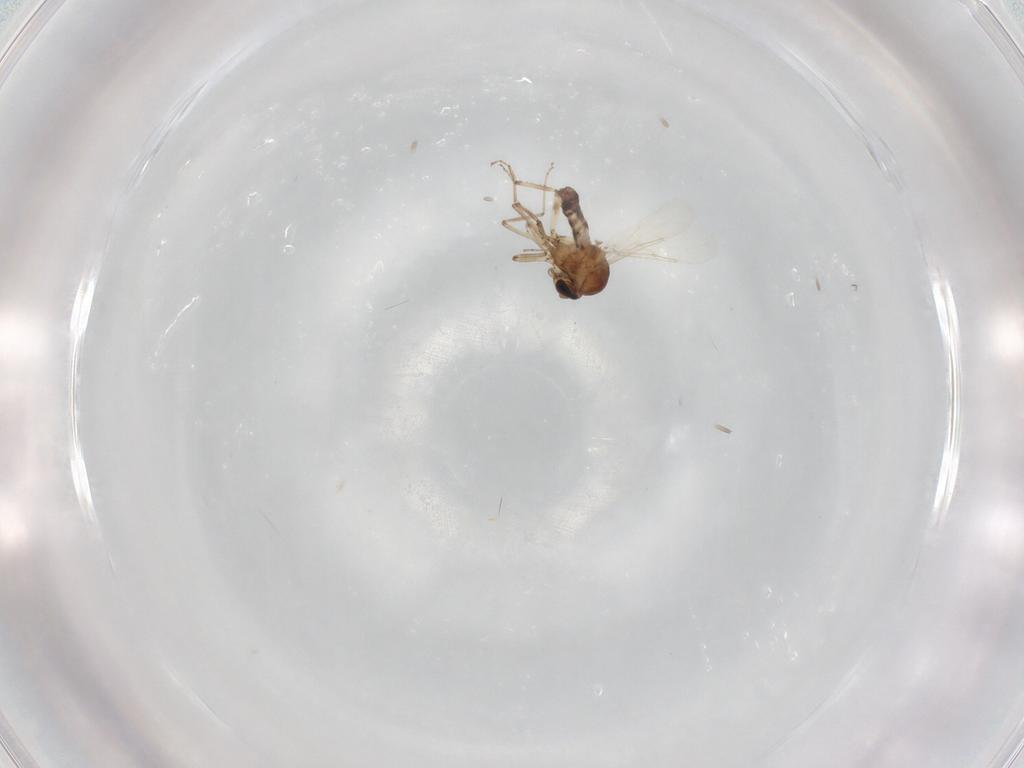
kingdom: Animalia
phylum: Arthropoda
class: Insecta
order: Diptera
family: Ceratopogonidae
